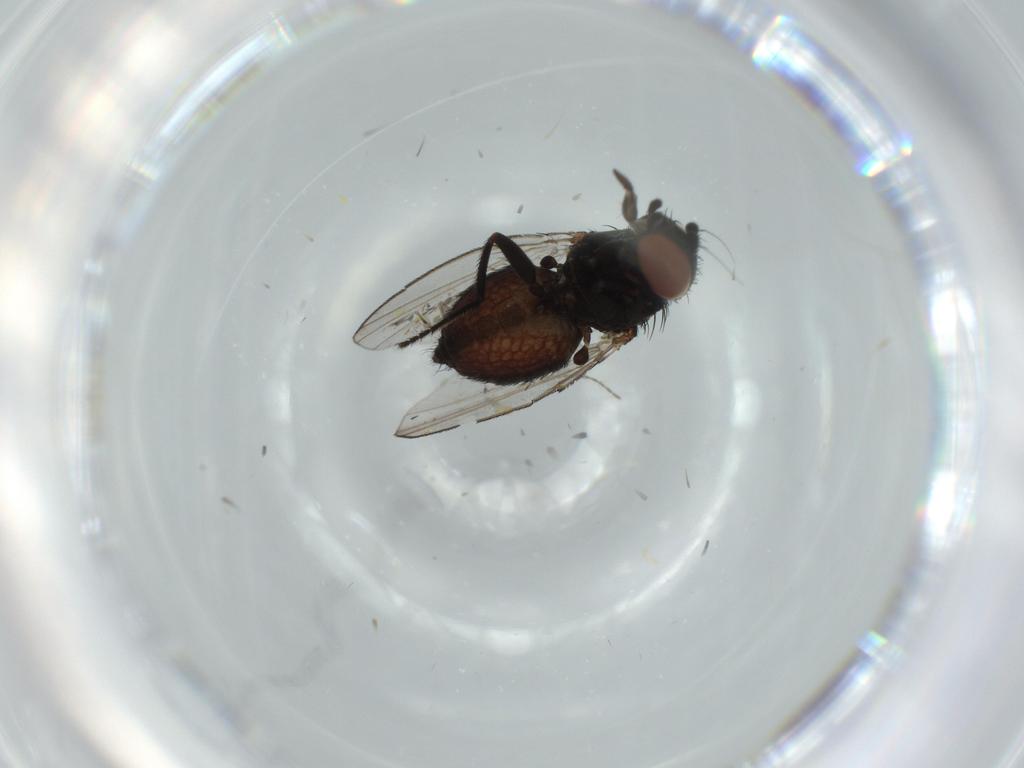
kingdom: Animalia
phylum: Arthropoda
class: Insecta
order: Diptera
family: Milichiidae
